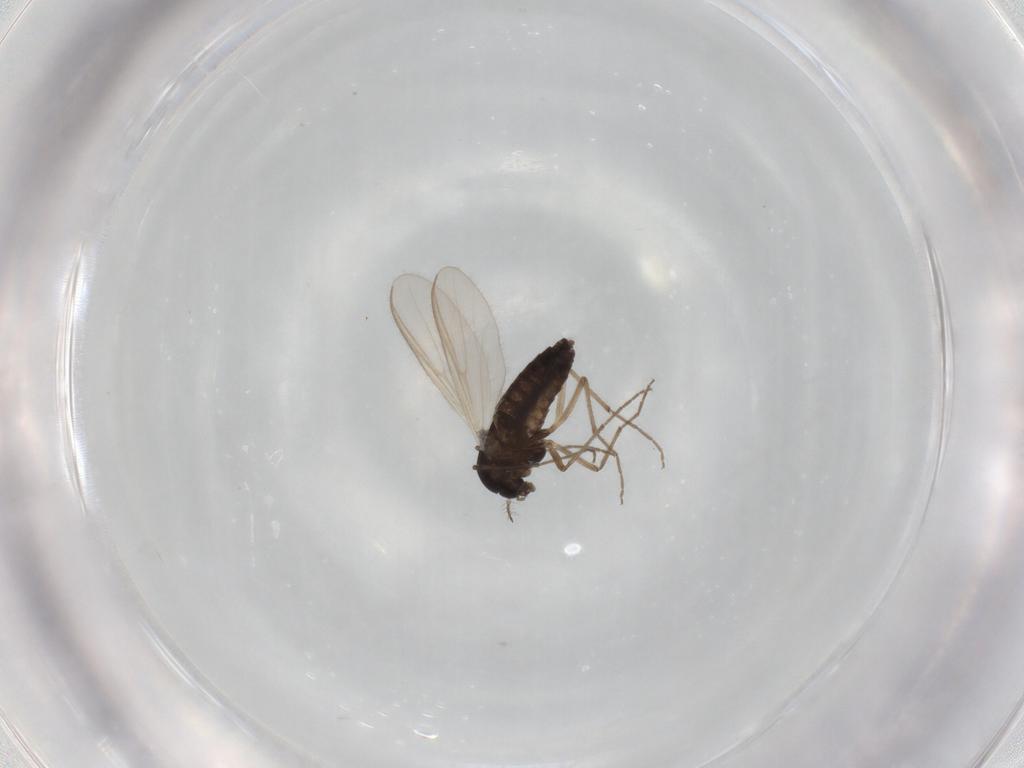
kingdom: Animalia
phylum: Arthropoda
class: Insecta
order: Diptera
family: Chironomidae
